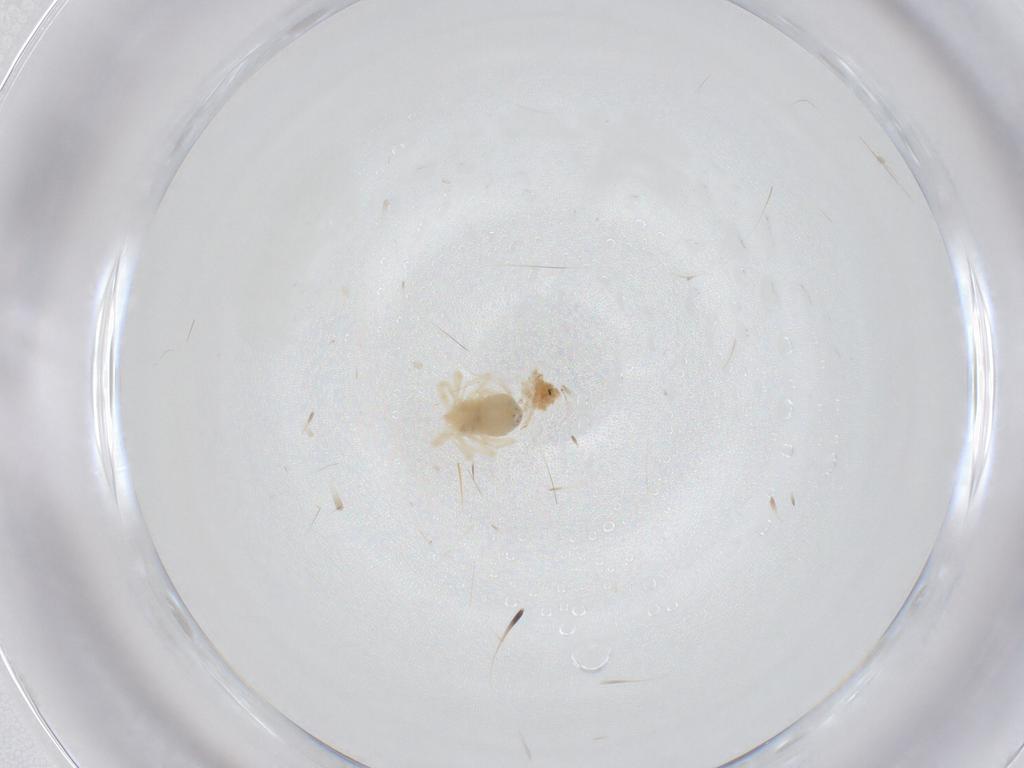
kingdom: Animalia
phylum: Arthropoda
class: Arachnida
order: Trombidiformes
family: Anystidae
